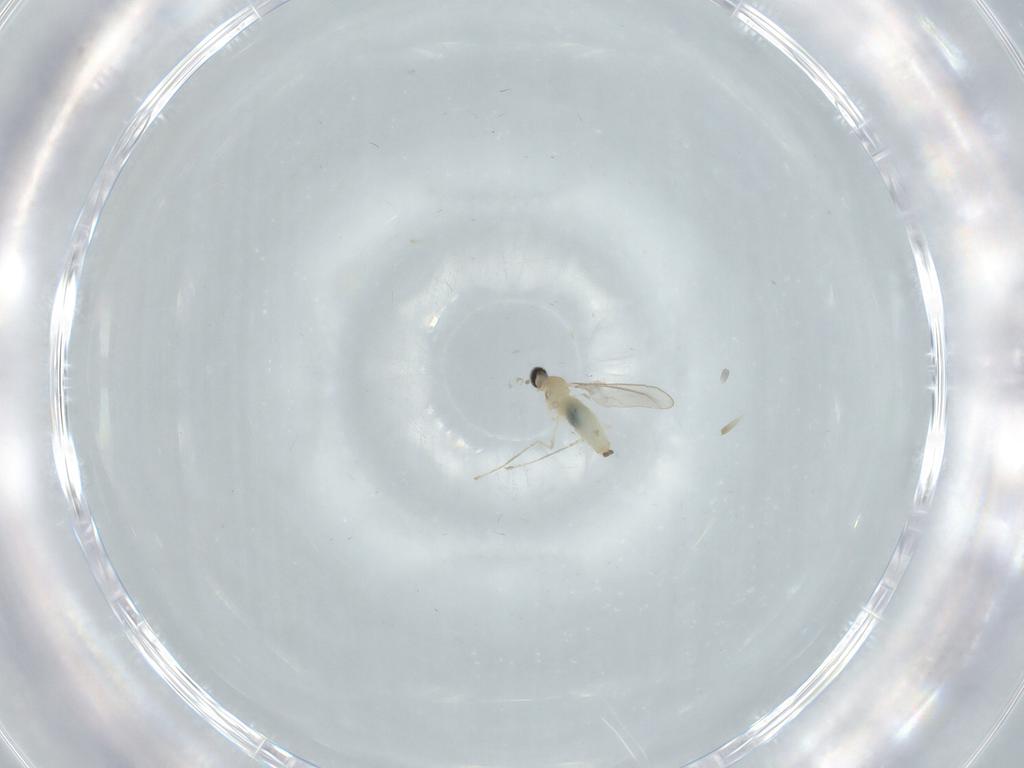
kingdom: Animalia
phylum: Arthropoda
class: Insecta
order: Diptera
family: Cecidomyiidae
